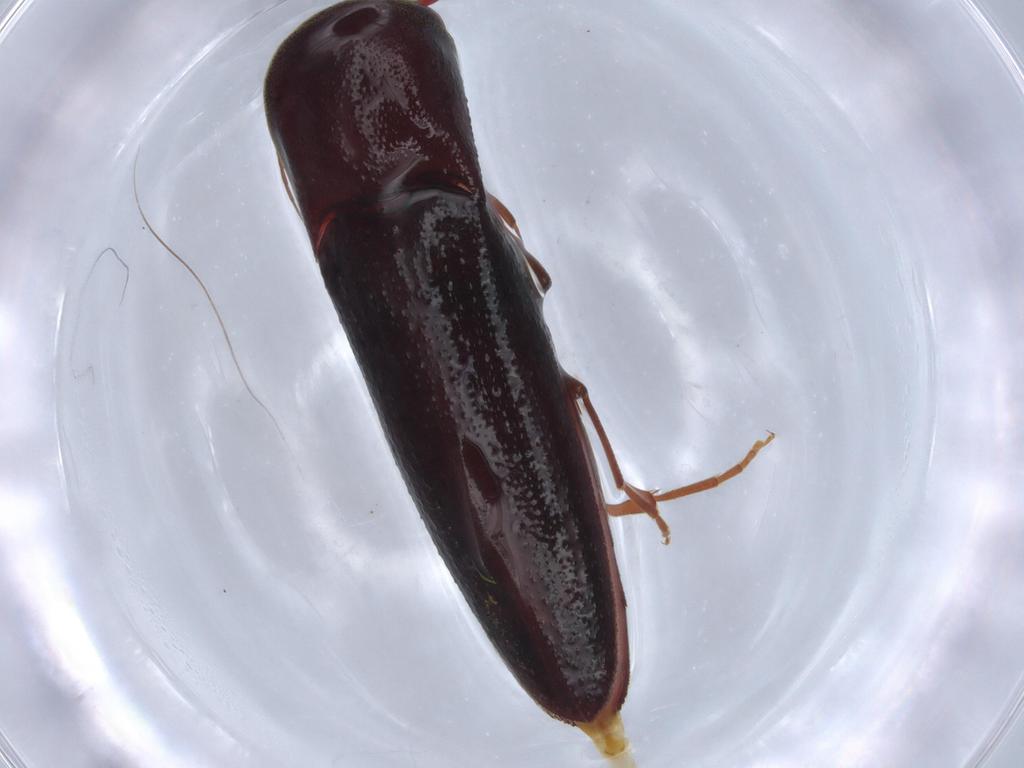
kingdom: Animalia
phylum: Arthropoda
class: Insecta
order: Coleoptera
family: Eucnemidae
